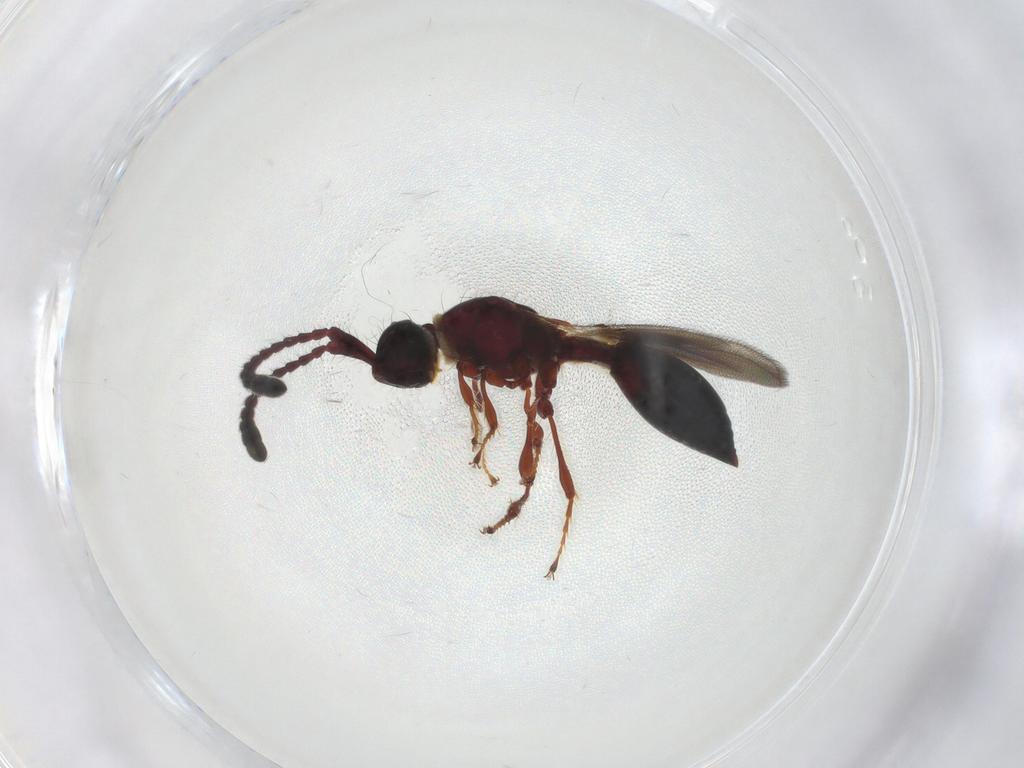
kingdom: Animalia
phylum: Arthropoda
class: Insecta
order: Hymenoptera
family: Diapriidae
